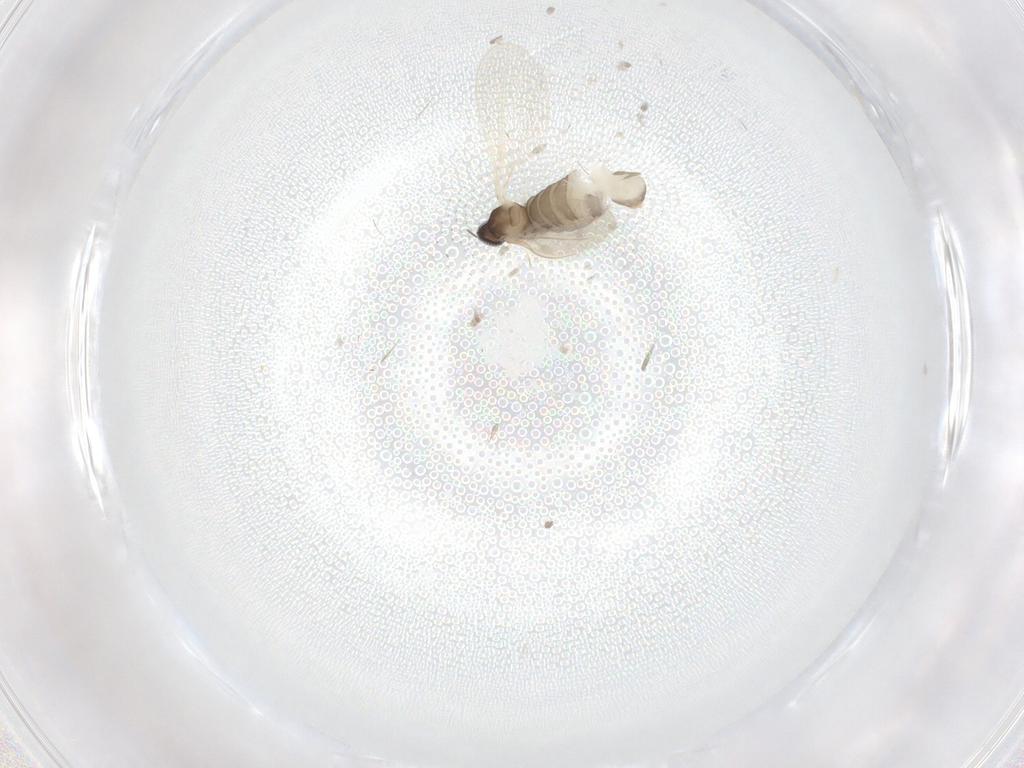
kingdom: Animalia
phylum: Arthropoda
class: Insecta
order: Diptera
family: Cecidomyiidae
